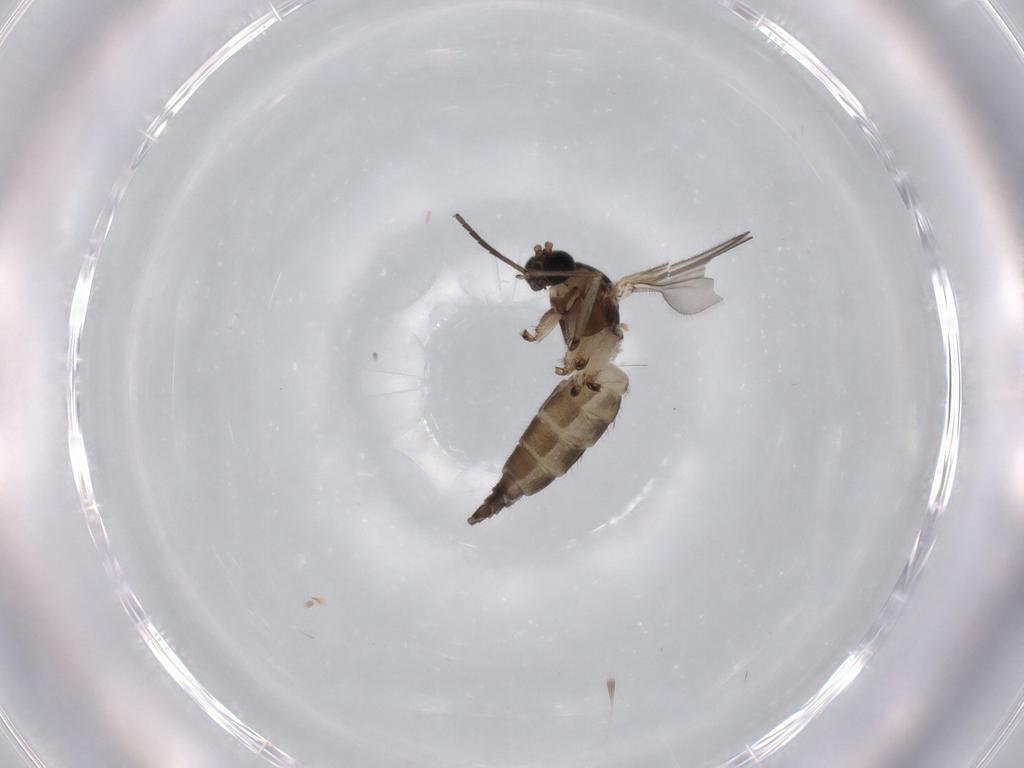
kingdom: Animalia
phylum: Arthropoda
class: Insecta
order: Diptera
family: Sciaridae
